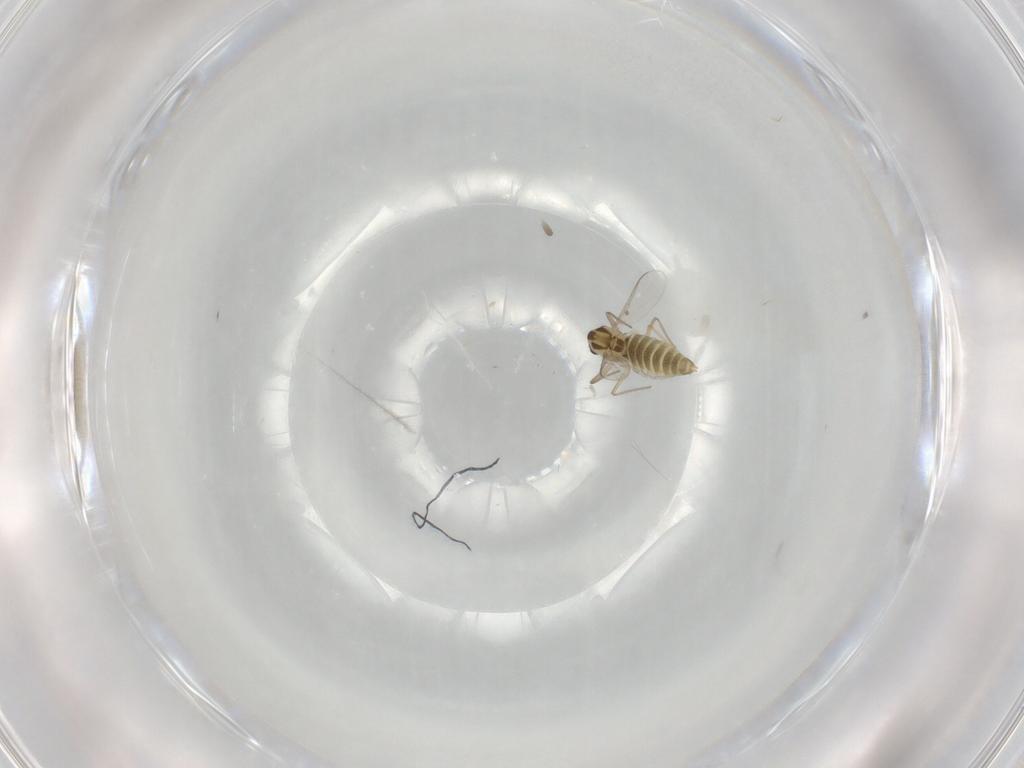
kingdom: Animalia
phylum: Arthropoda
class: Insecta
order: Diptera
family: Chironomidae
